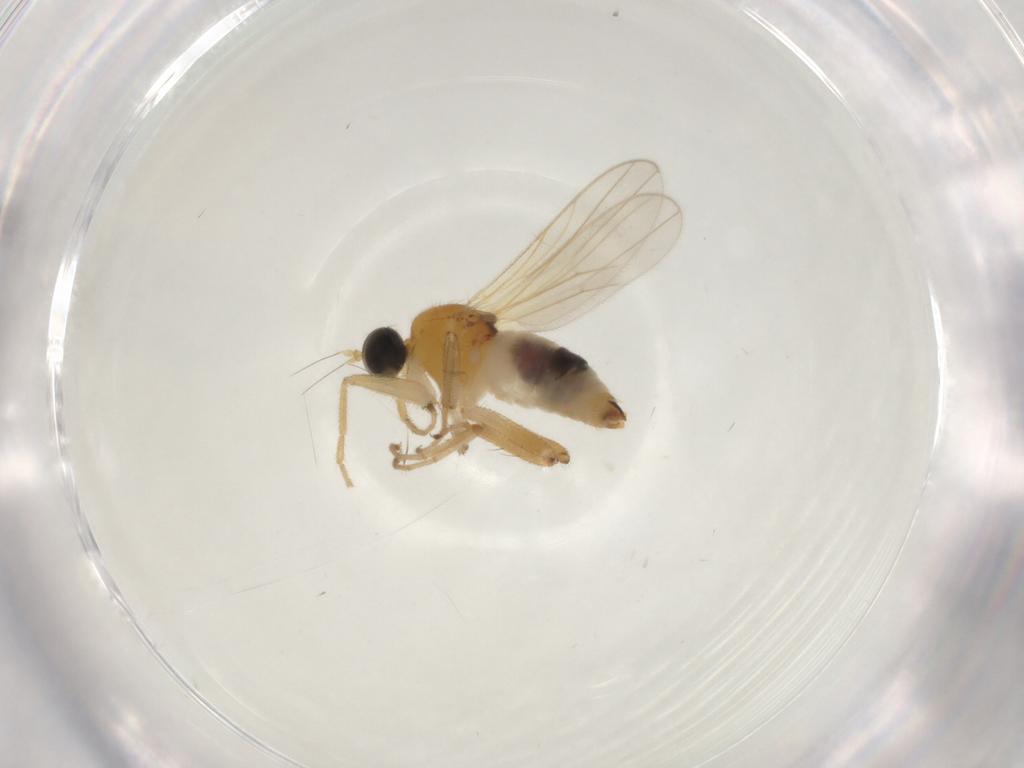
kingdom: Animalia
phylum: Arthropoda
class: Insecta
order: Diptera
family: Hybotidae
